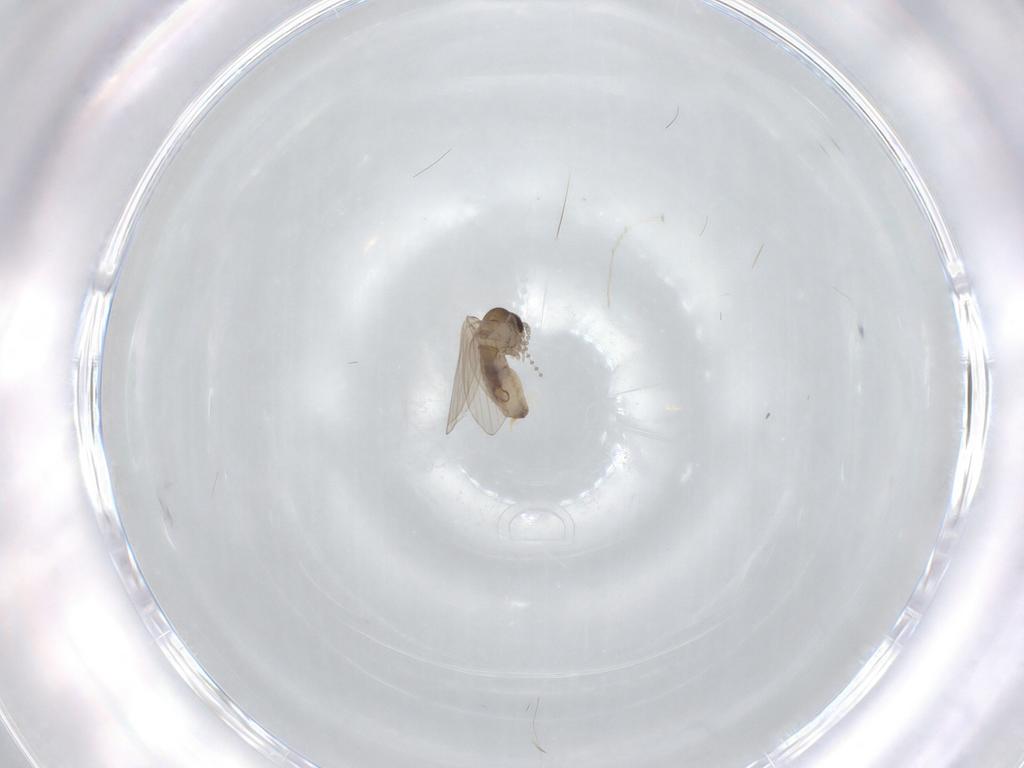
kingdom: Animalia
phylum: Arthropoda
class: Insecta
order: Diptera
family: Psychodidae
